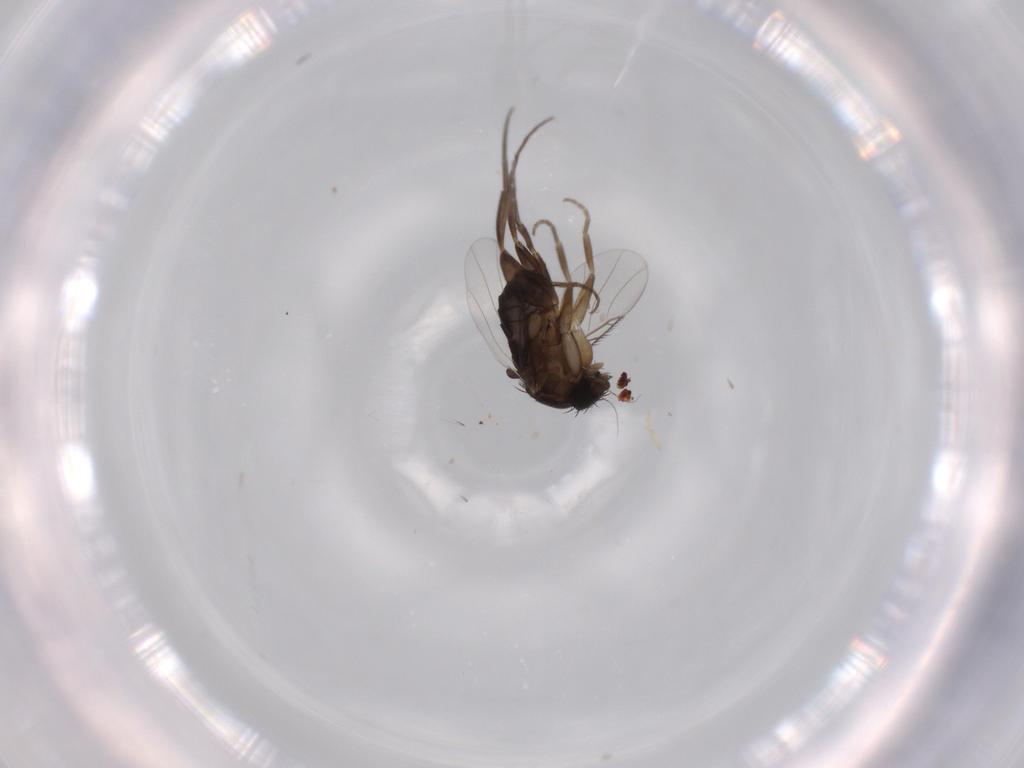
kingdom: Animalia
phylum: Arthropoda
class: Insecta
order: Diptera
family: Phoridae
